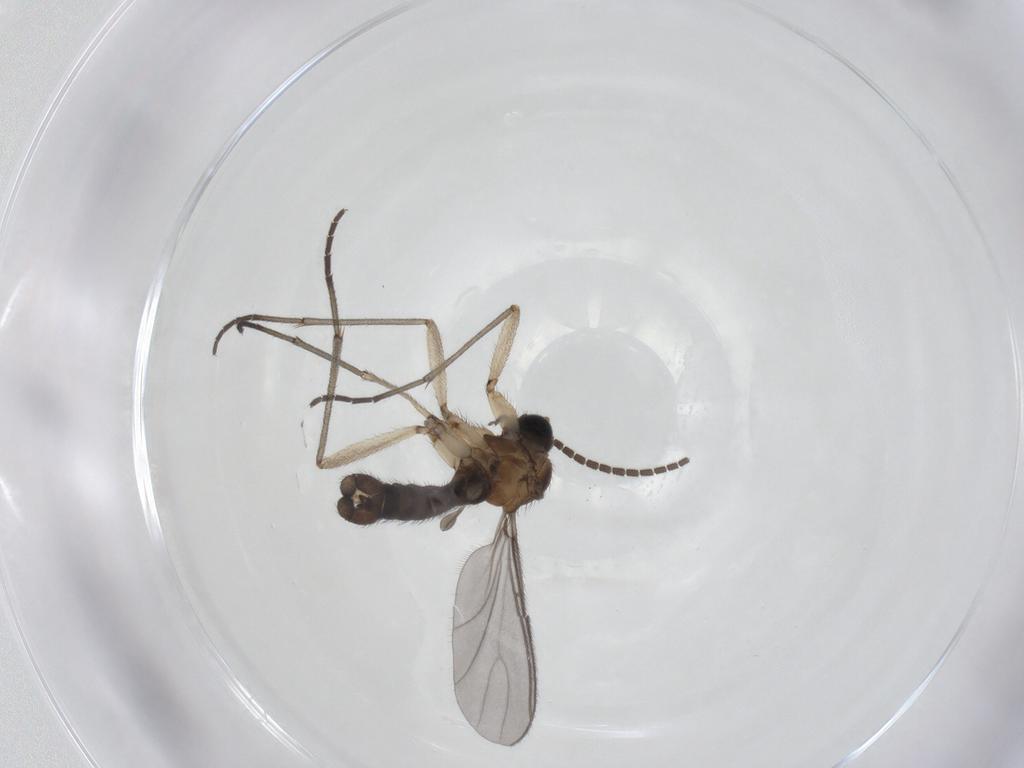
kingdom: Animalia
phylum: Arthropoda
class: Insecta
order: Diptera
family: Sciaridae
